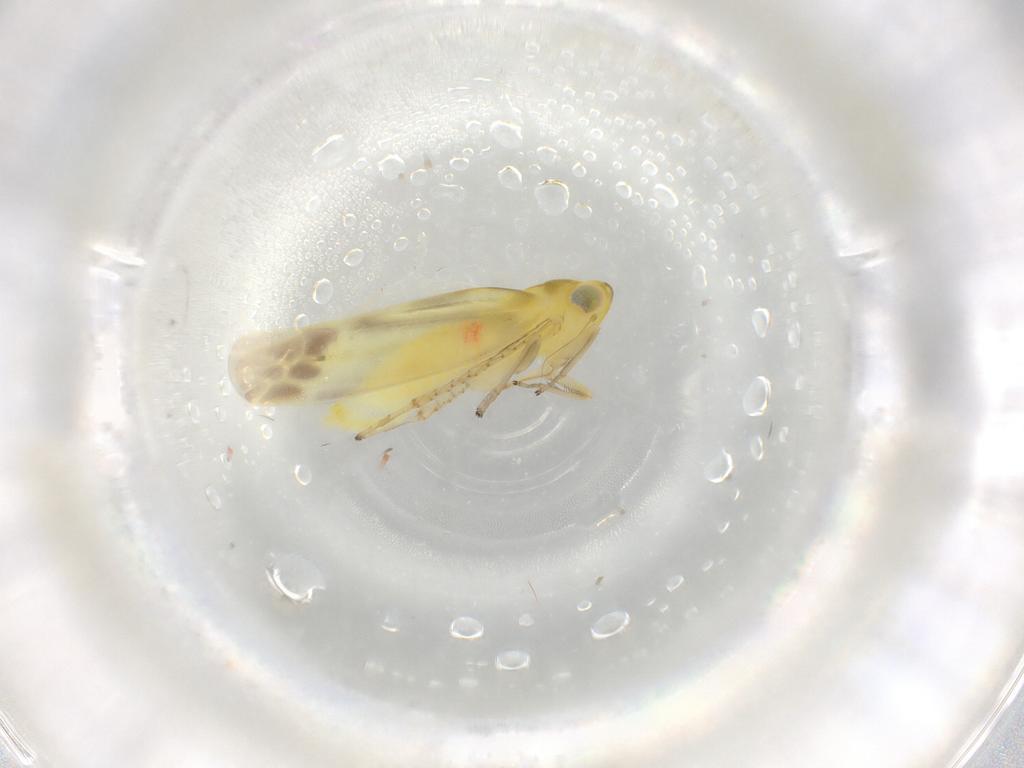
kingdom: Animalia
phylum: Arthropoda
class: Insecta
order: Hemiptera
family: Cicadellidae
